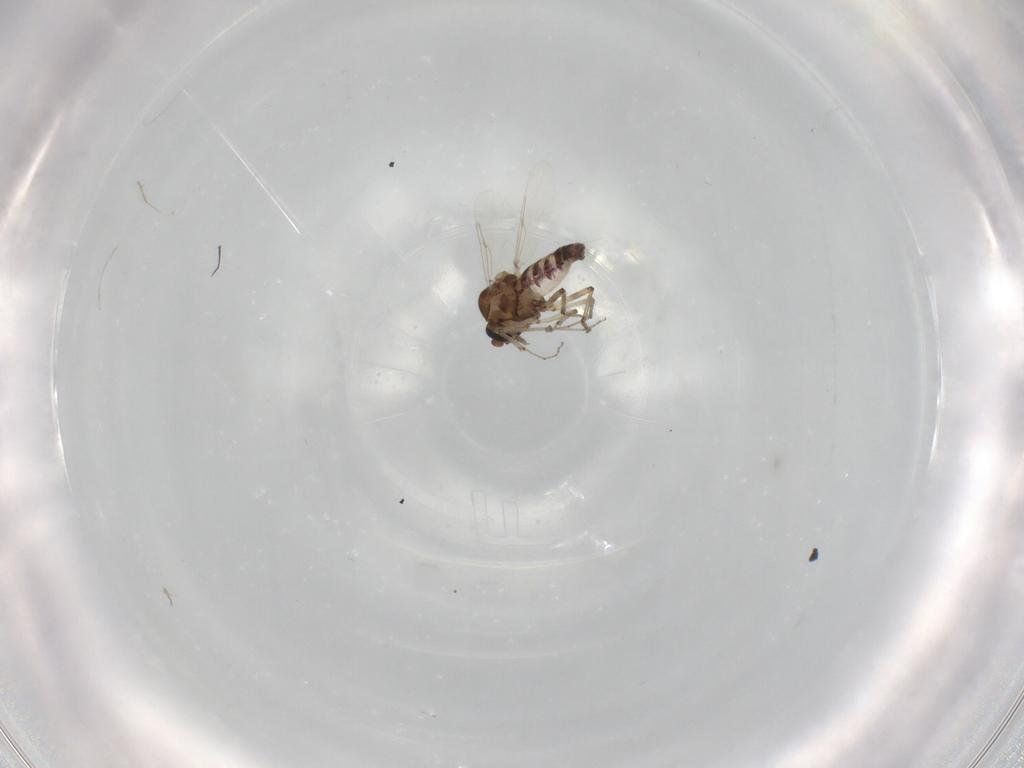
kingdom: Animalia
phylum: Arthropoda
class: Insecta
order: Diptera
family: Ceratopogonidae
